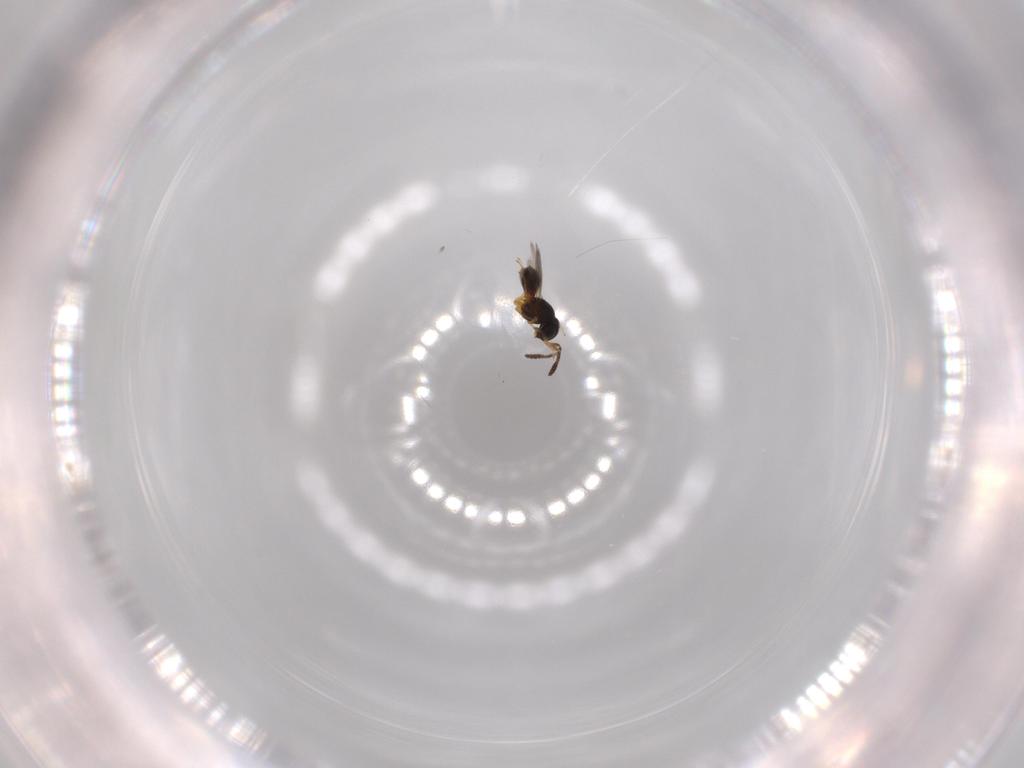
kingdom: Animalia
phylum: Arthropoda
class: Insecta
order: Hymenoptera
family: Scelionidae
